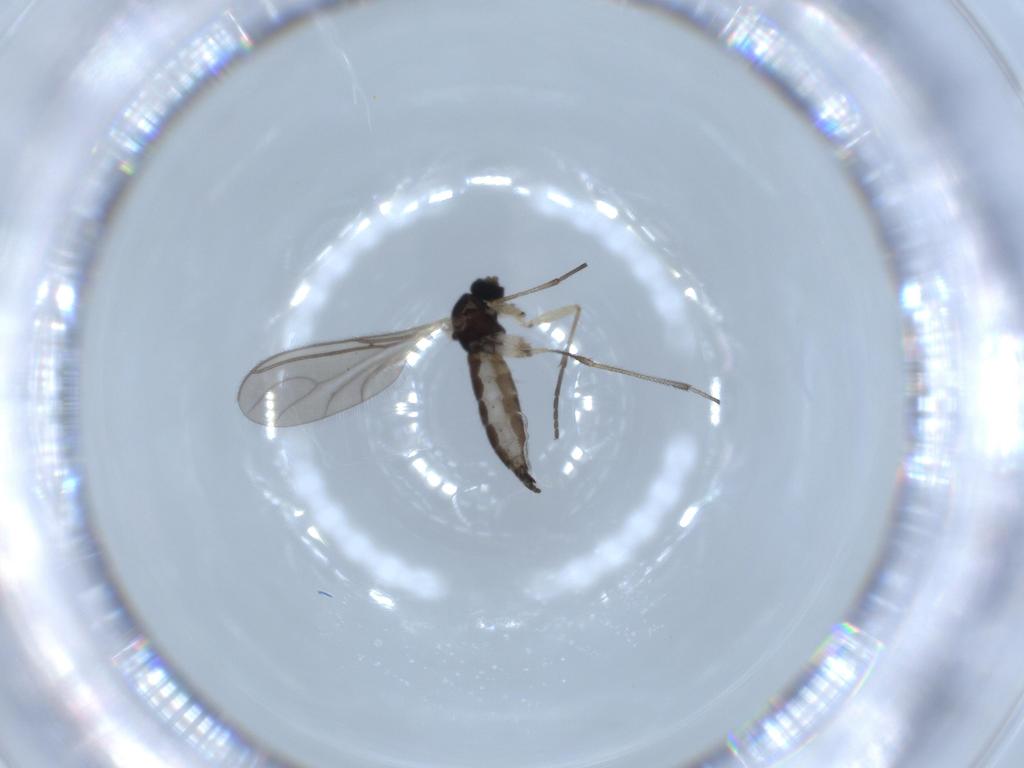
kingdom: Animalia
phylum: Arthropoda
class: Insecta
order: Diptera
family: Sciaridae
